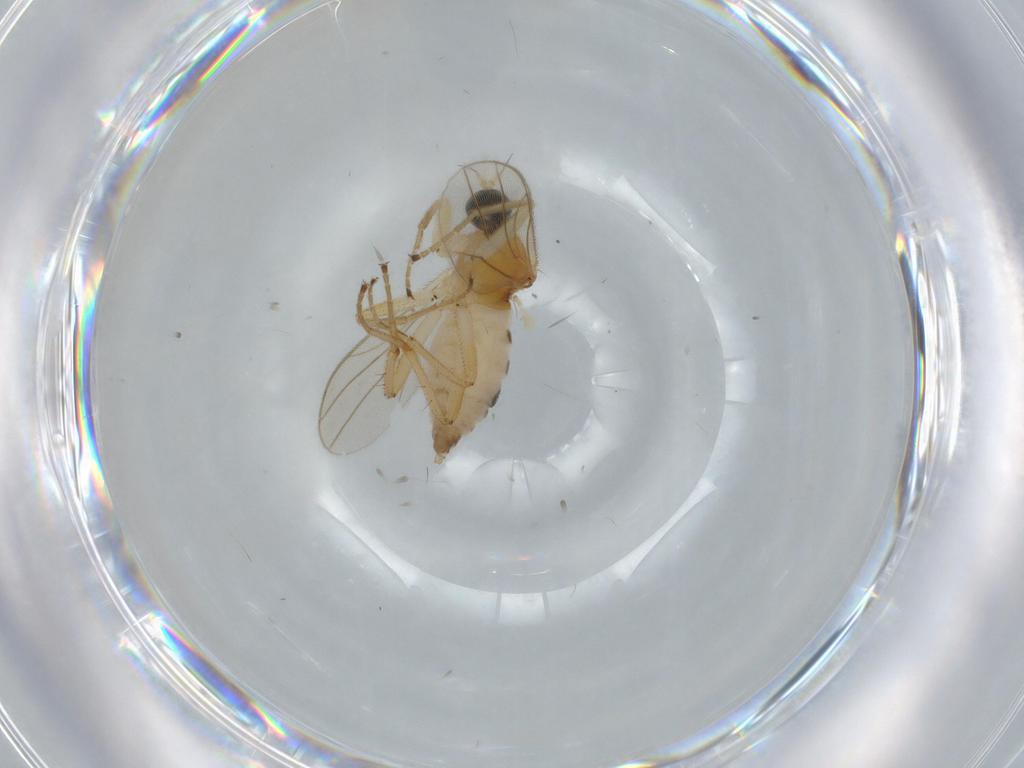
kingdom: Animalia
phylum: Arthropoda
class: Insecta
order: Diptera
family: Hybotidae
